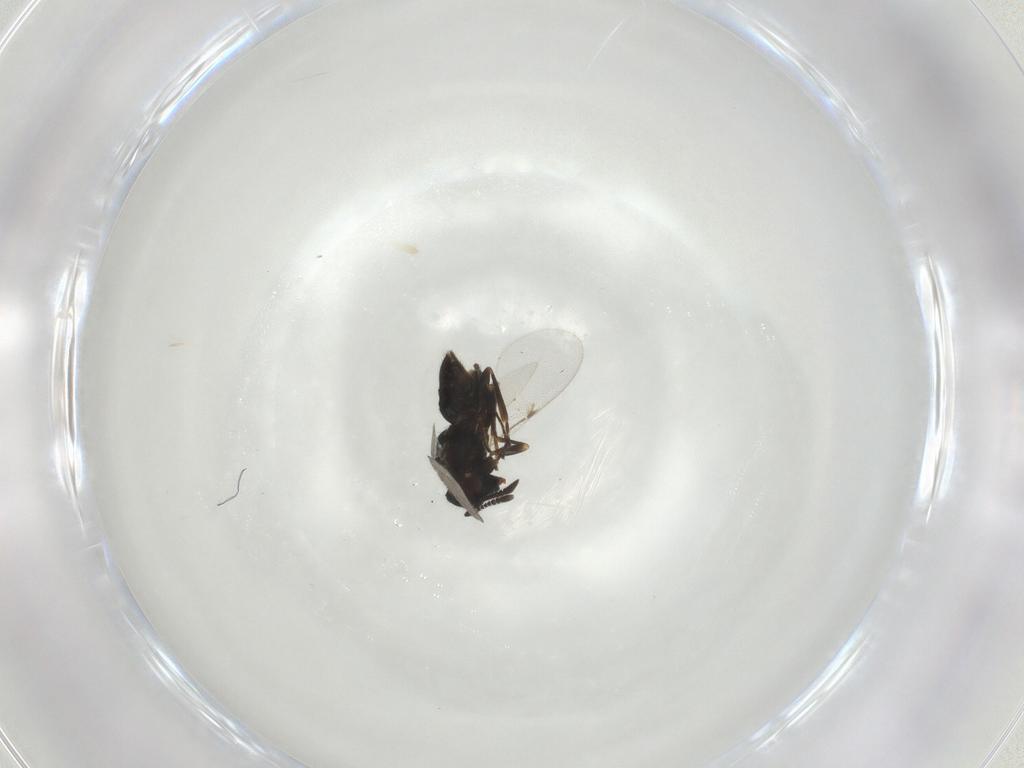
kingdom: Animalia
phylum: Arthropoda
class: Insecta
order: Hymenoptera
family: Encyrtidae
